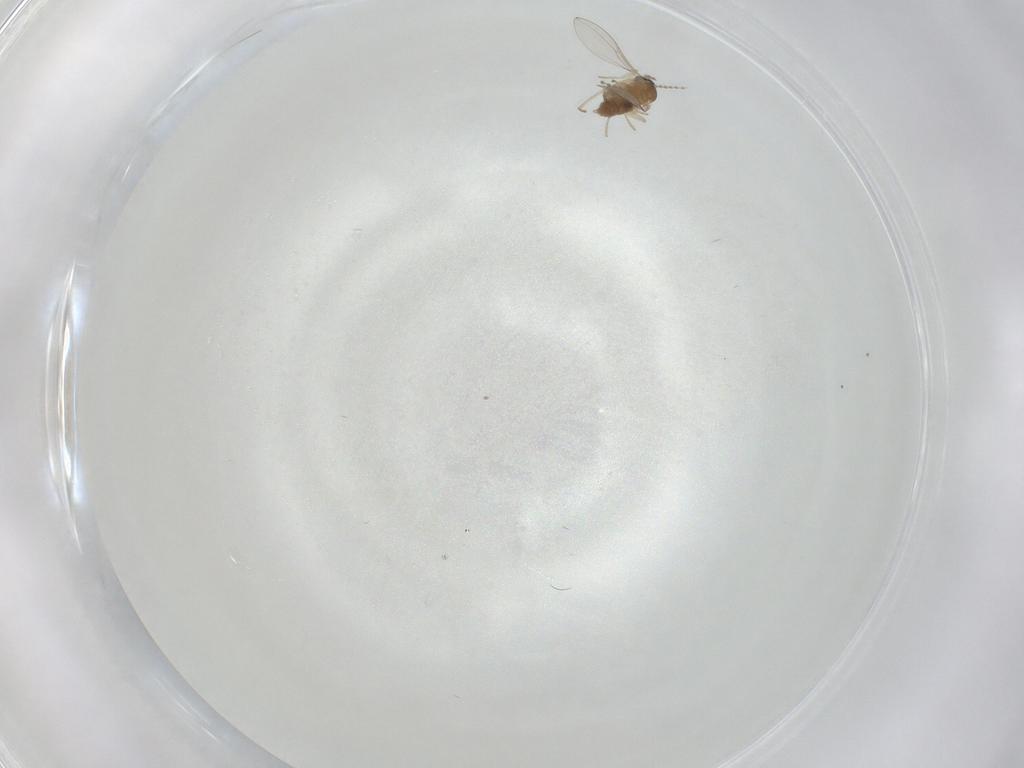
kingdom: Animalia
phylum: Arthropoda
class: Insecta
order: Diptera
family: Cecidomyiidae
